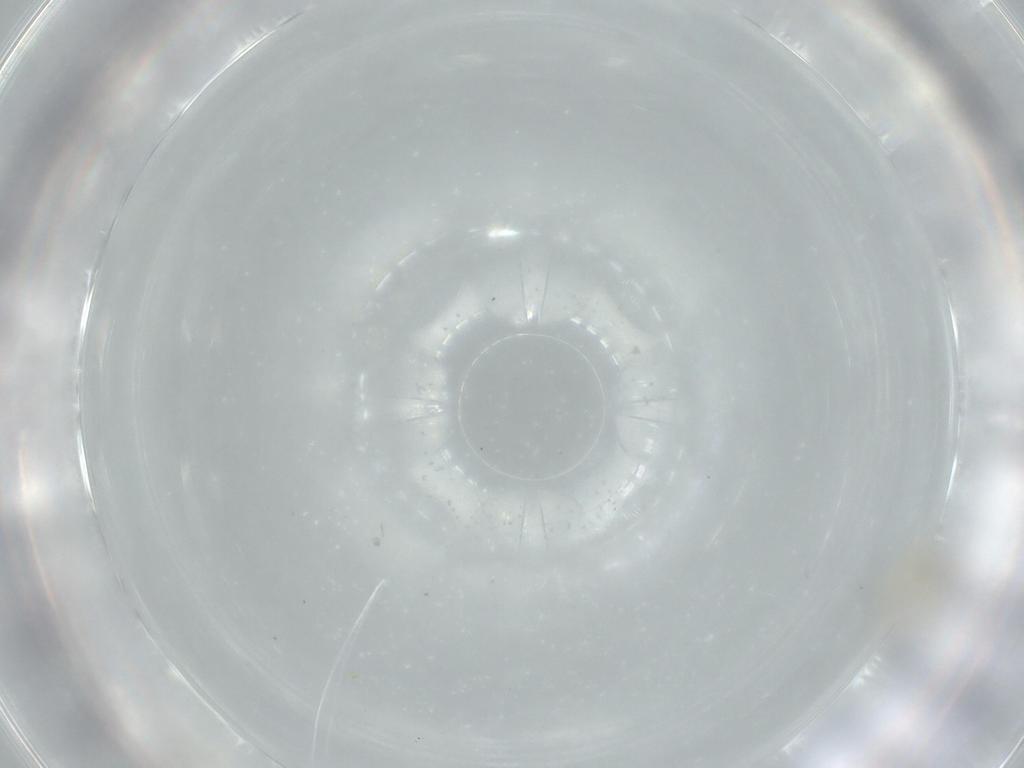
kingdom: Animalia
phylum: Arthropoda
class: Insecta
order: Diptera
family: Cecidomyiidae
